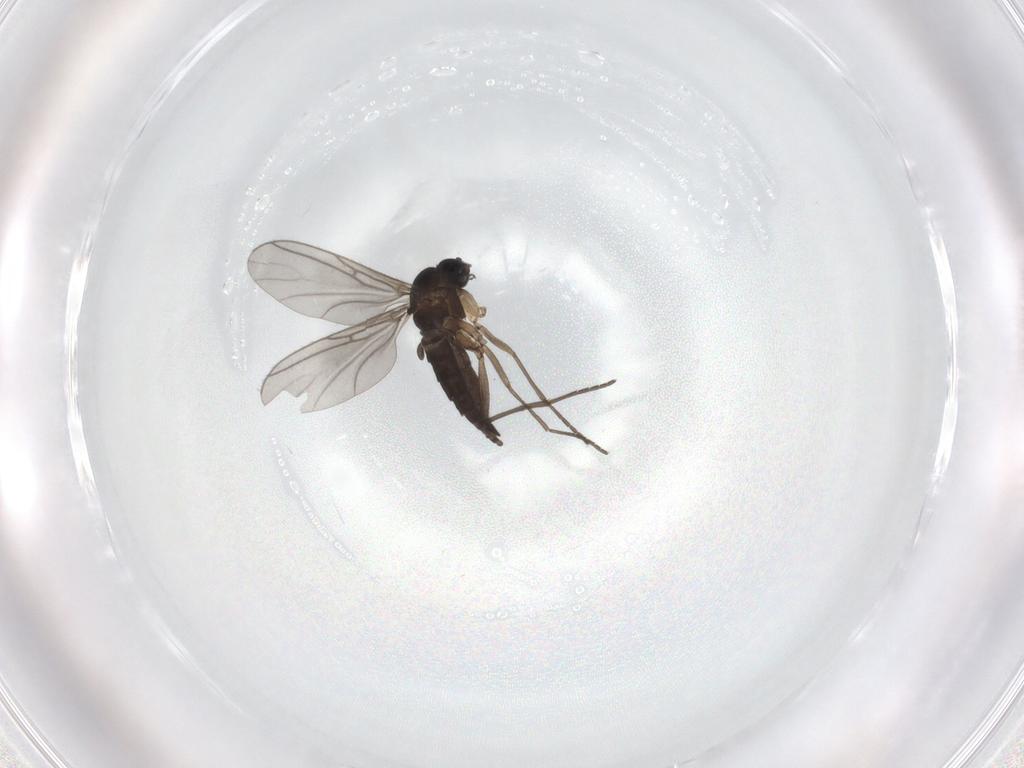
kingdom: Animalia
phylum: Arthropoda
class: Insecta
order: Diptera
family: Sciaridae
